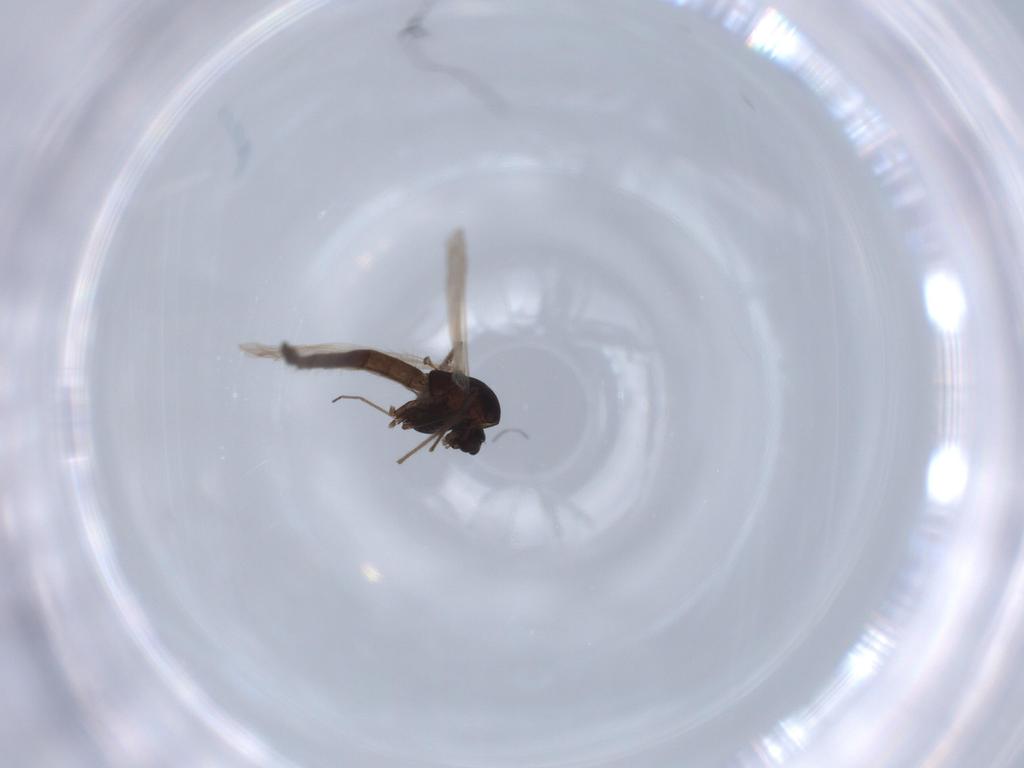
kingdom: Animalia
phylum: Arthropoda
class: Insecta
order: Diptera
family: Chironomidae
